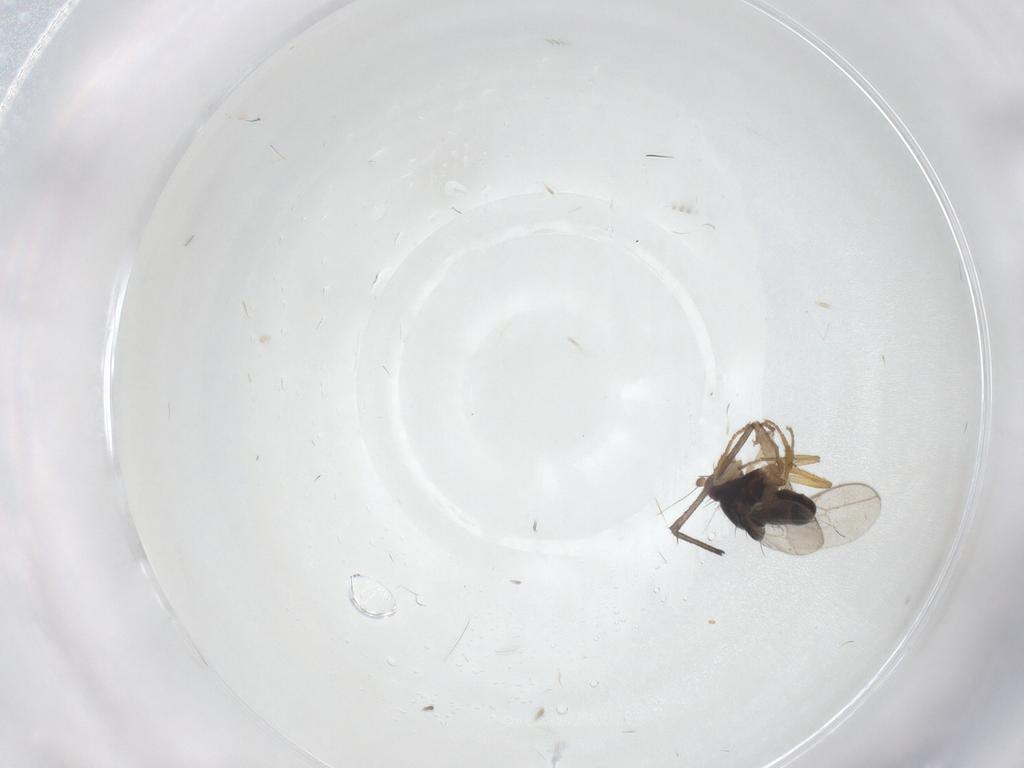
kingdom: Animalia
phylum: Arthropoda
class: Insecta
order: Diptera
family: Sphaeroceridae
